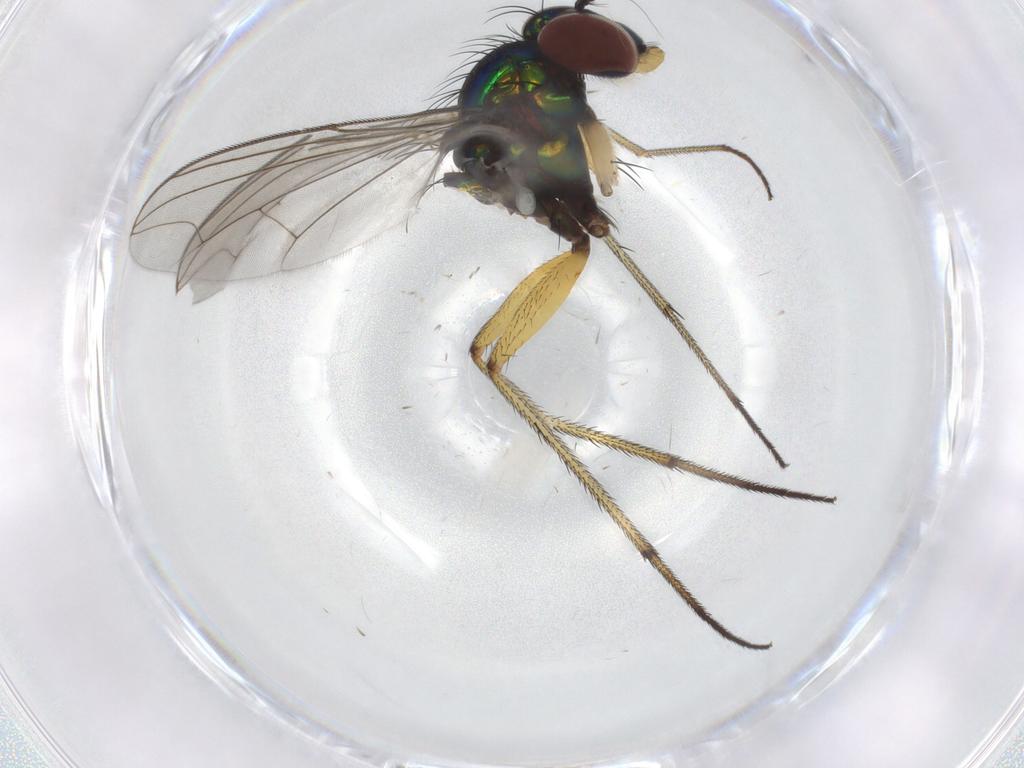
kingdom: Animalia
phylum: Arthropoda
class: Insecta
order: Diptera
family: Dolichopodidae
